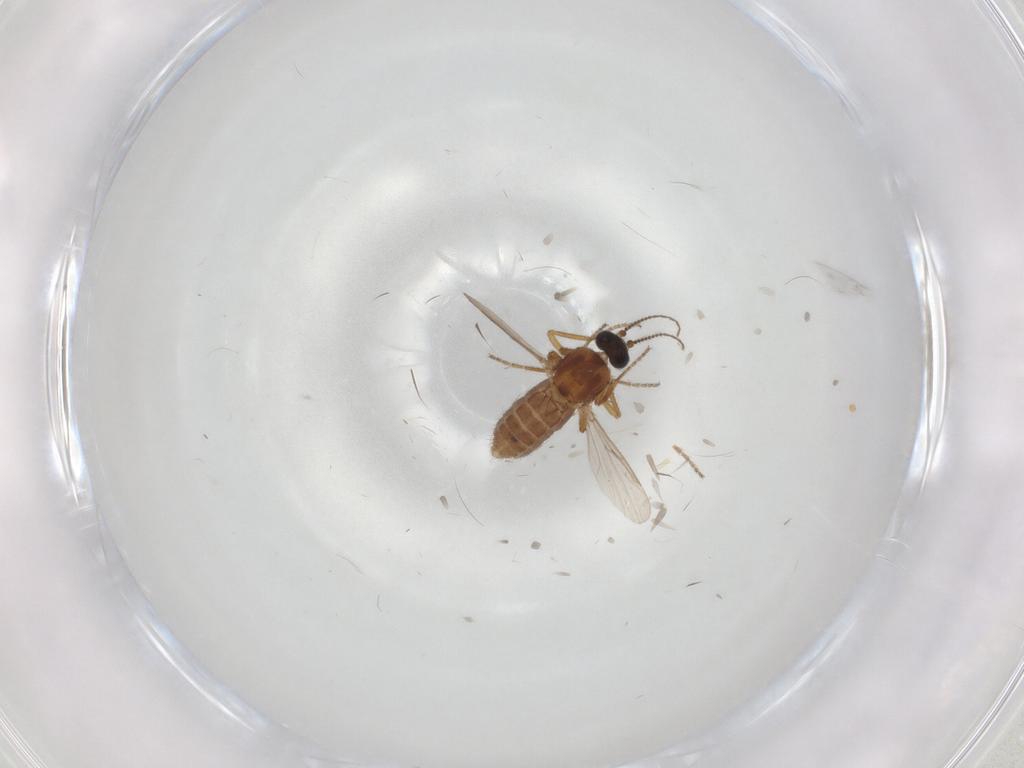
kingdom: Animalia
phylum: Arthropoda
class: Insecta
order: Diptera
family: Ceratopogonidae
